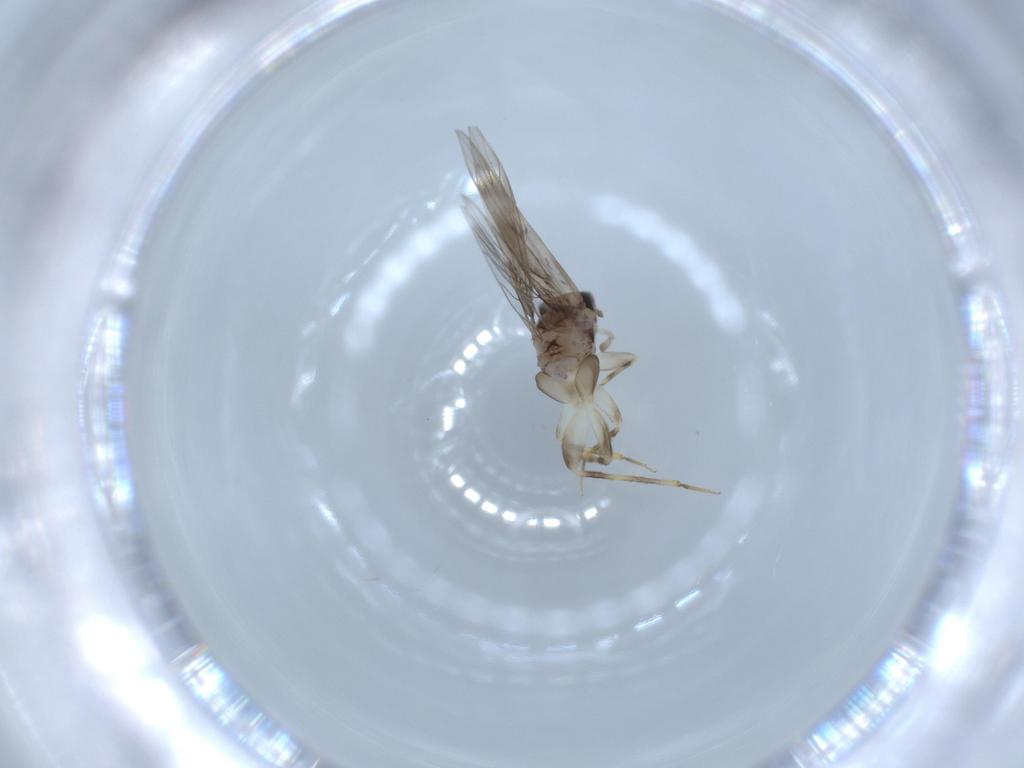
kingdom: Animalia
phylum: Arthropoda
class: Insecta
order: Psocodea
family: Lepidopsocidae
